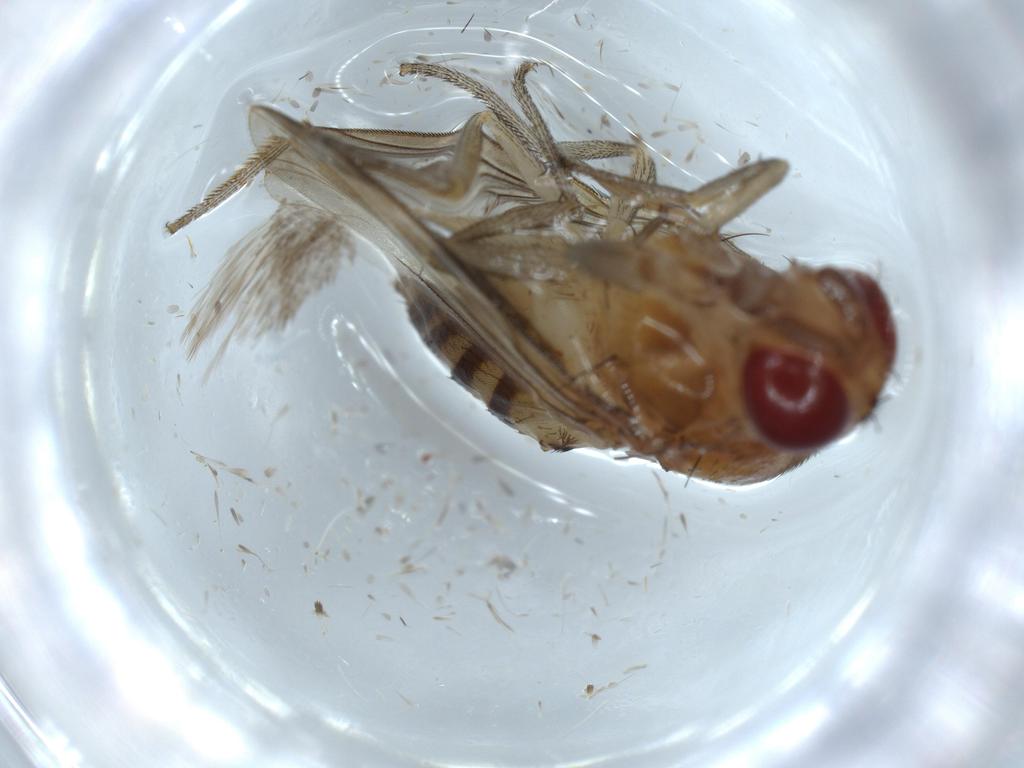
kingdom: Animalia
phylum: Arthropoda
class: Insecta
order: Diptera
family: Drosophilidae
